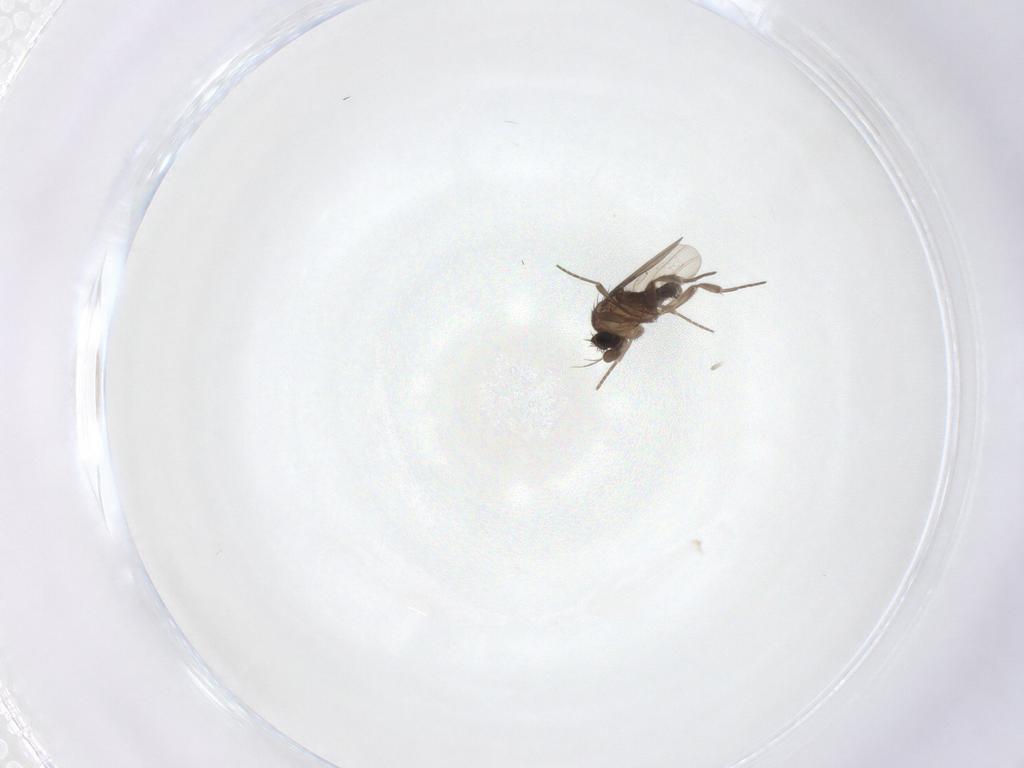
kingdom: Animalia
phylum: Arthropoda
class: Insecta
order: Diptera
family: Phoridae
